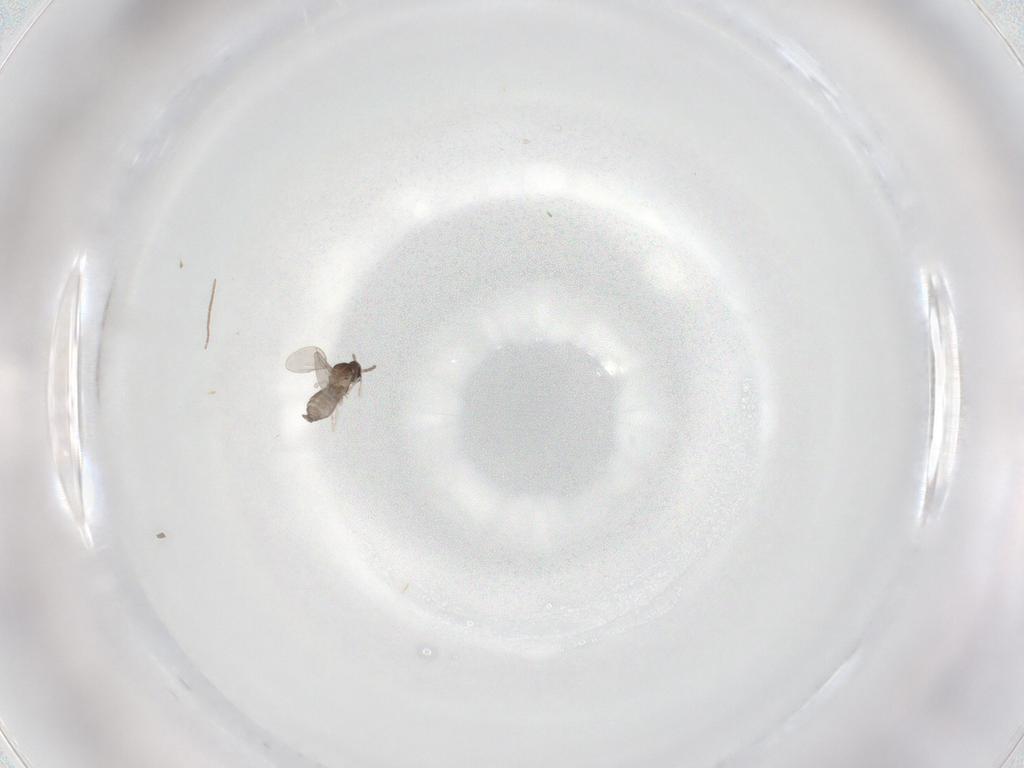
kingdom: Animalia
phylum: Arthropoda
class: Insecta
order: Diptera
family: Cecidomyiidae
